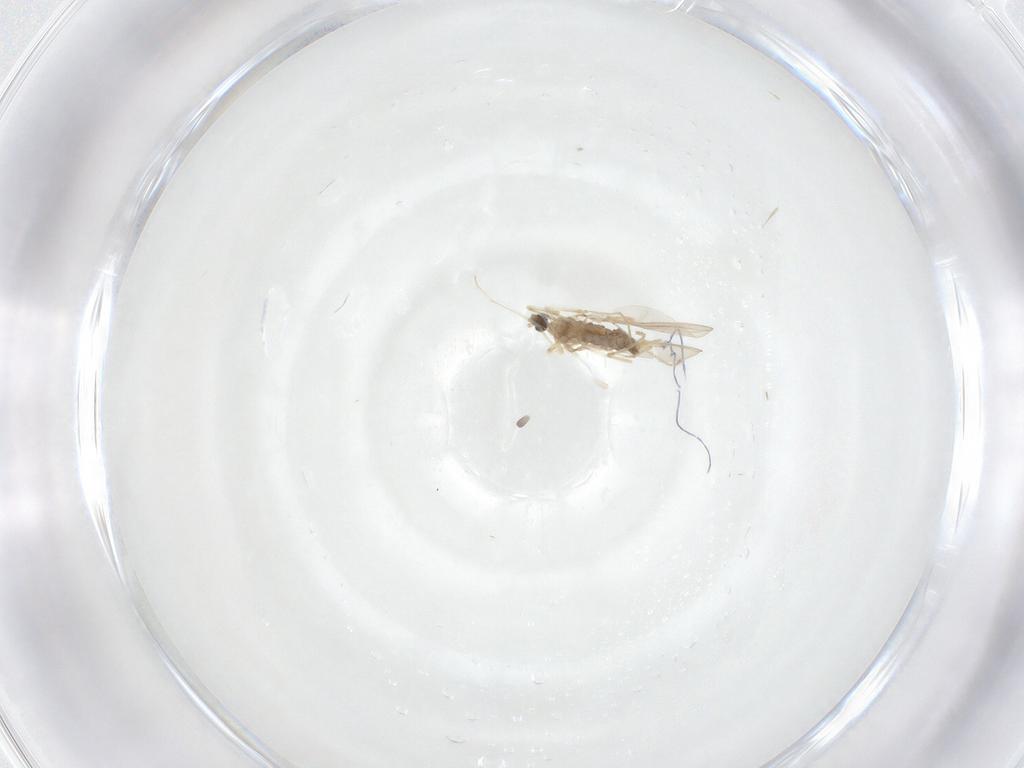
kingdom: Animalia
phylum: Arthropoda
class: Insecta
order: Diptera
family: Cecidomyiidae
